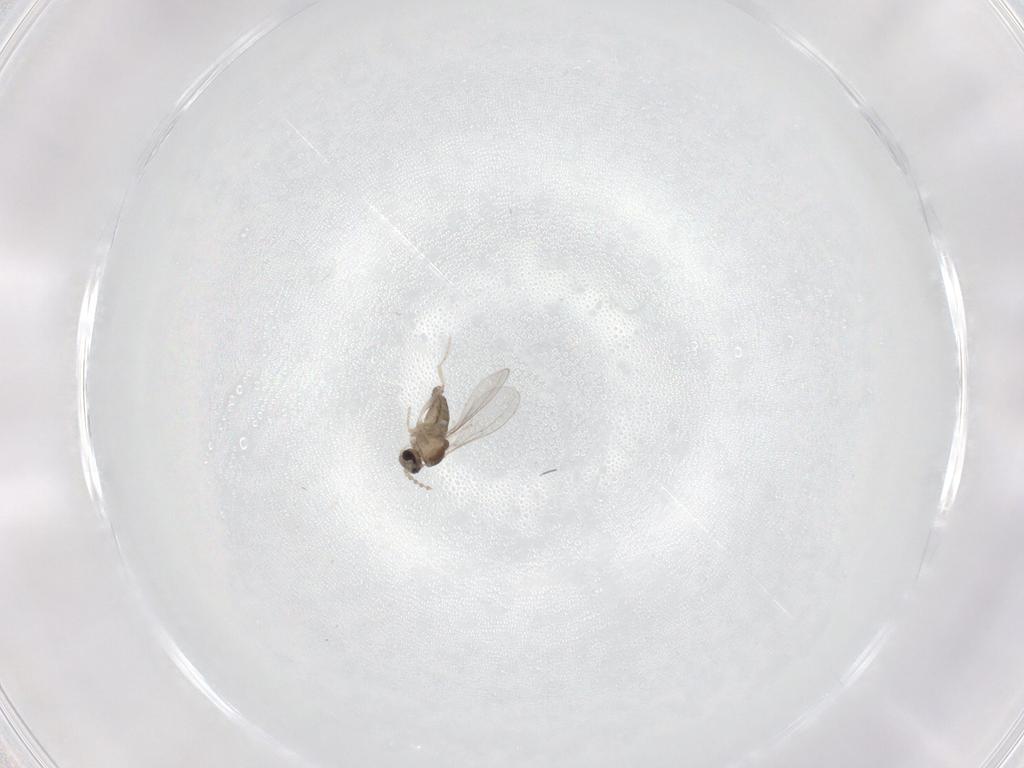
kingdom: Animalia
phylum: Arthropoda
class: Insecta
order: Diptera
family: Cecidomyiidae
